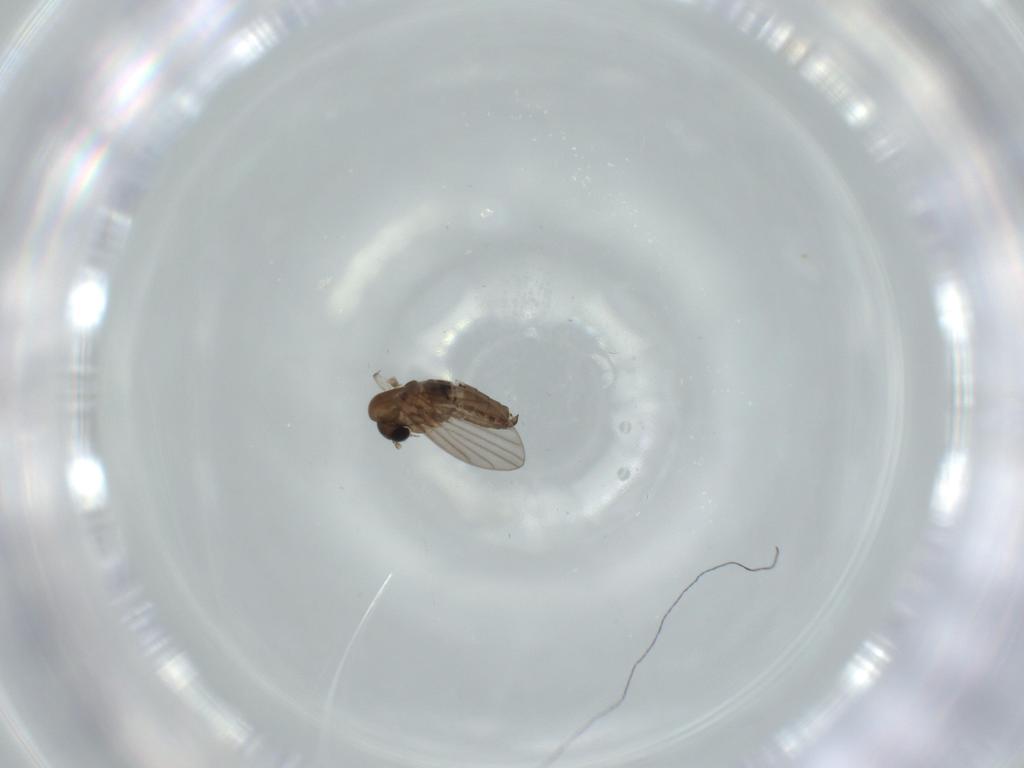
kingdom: Animalia
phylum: Arthropoda
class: Insecta
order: Diptera
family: Psychodidae
